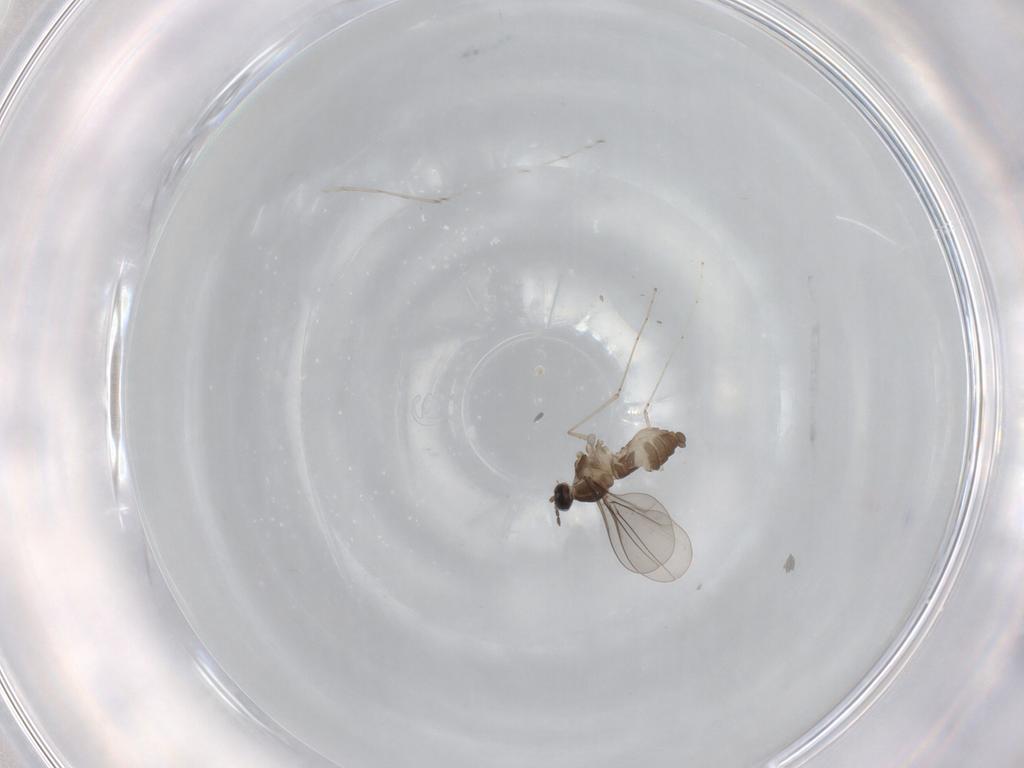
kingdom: Animalia
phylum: Arthropoda
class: Insecta
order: Diptera
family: Cecidomyiidae
